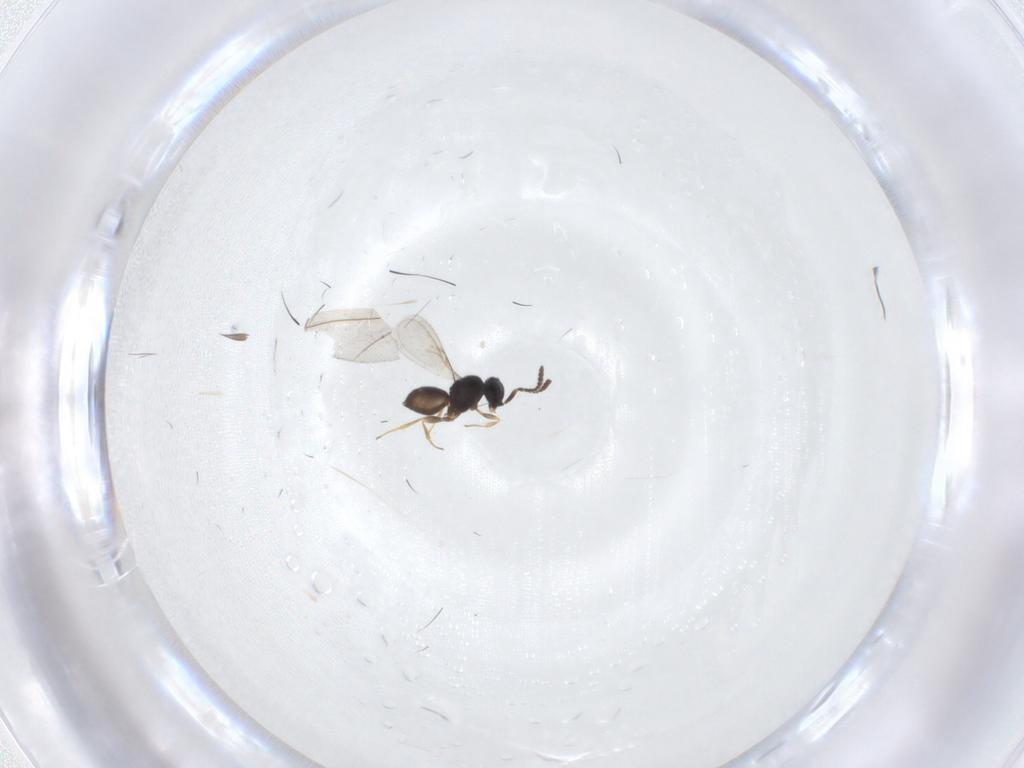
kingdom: Animalia
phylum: Arthropoda
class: Insecta
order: Hymenoptera
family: Scelionidae
